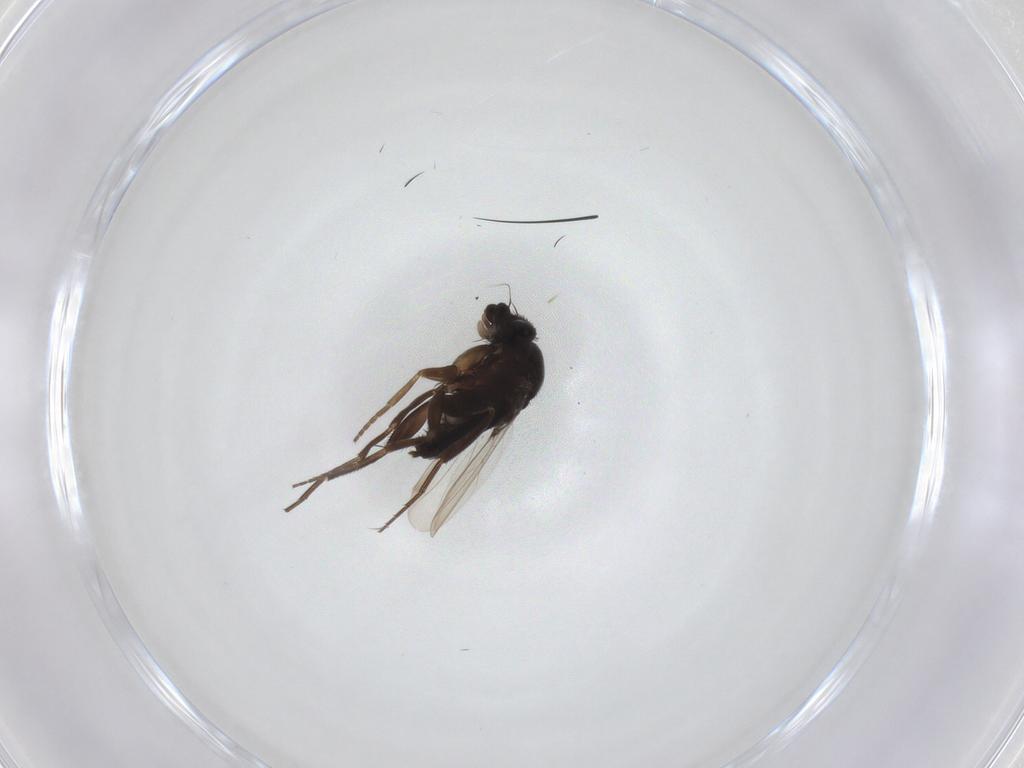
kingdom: Animalia
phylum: Arthropoda
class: Insecta
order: Diptera
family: Phoridae
